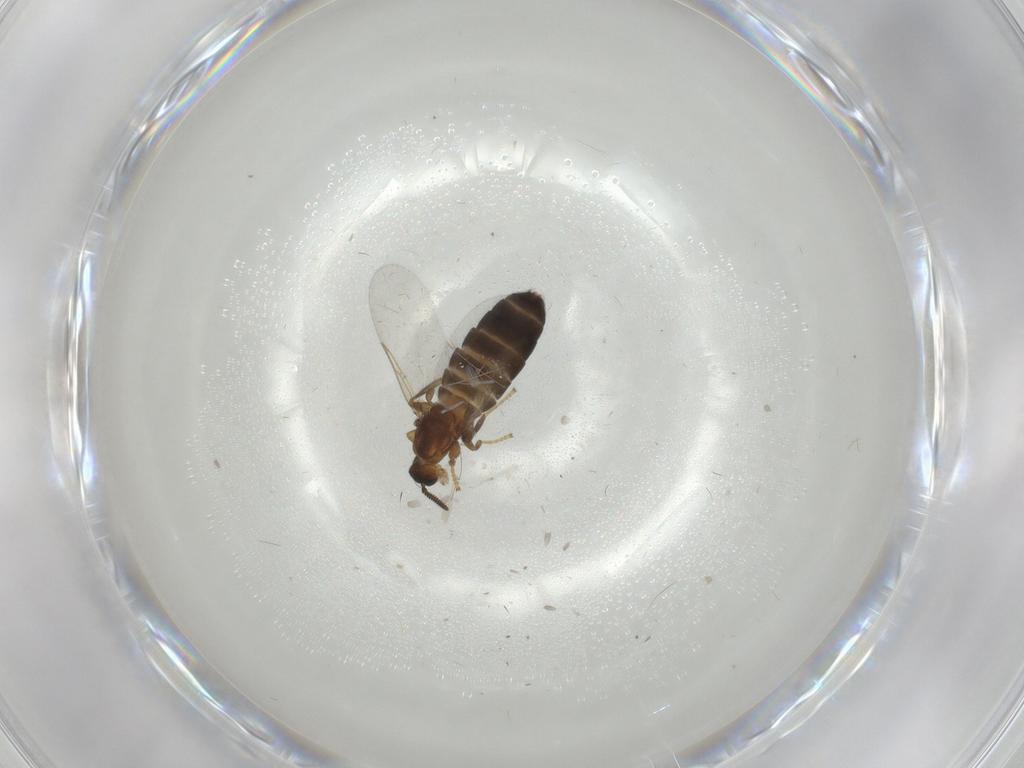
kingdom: Animalia
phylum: Arthropoda
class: Insecta
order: Diptera
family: Scatopsidae
